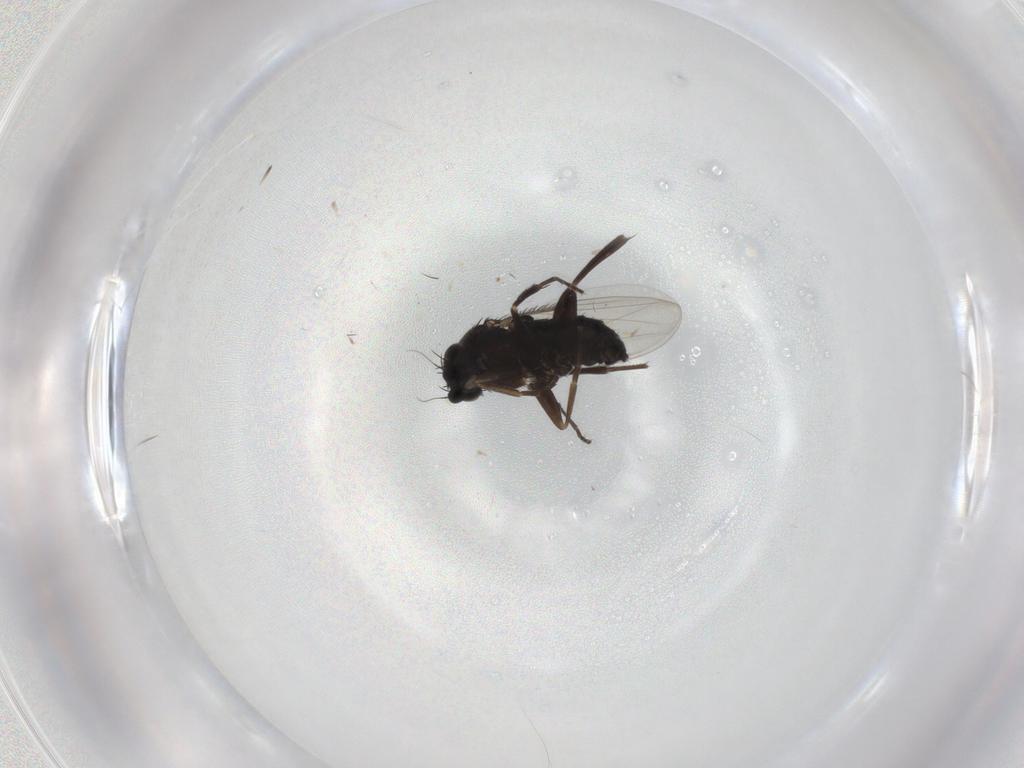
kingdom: Animalia
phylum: Arthropoda
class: Insecta
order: Diptera
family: Phoridae
